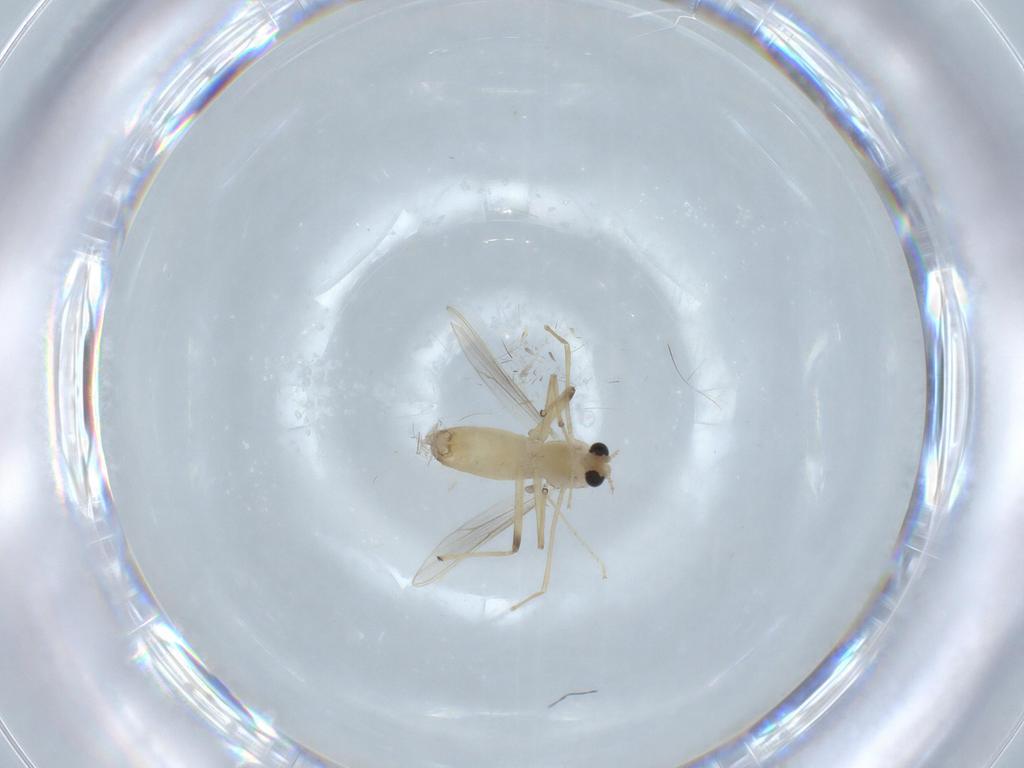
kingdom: Animalia
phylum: Arthropoda
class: Insecta
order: Diptera
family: Chironomidae
